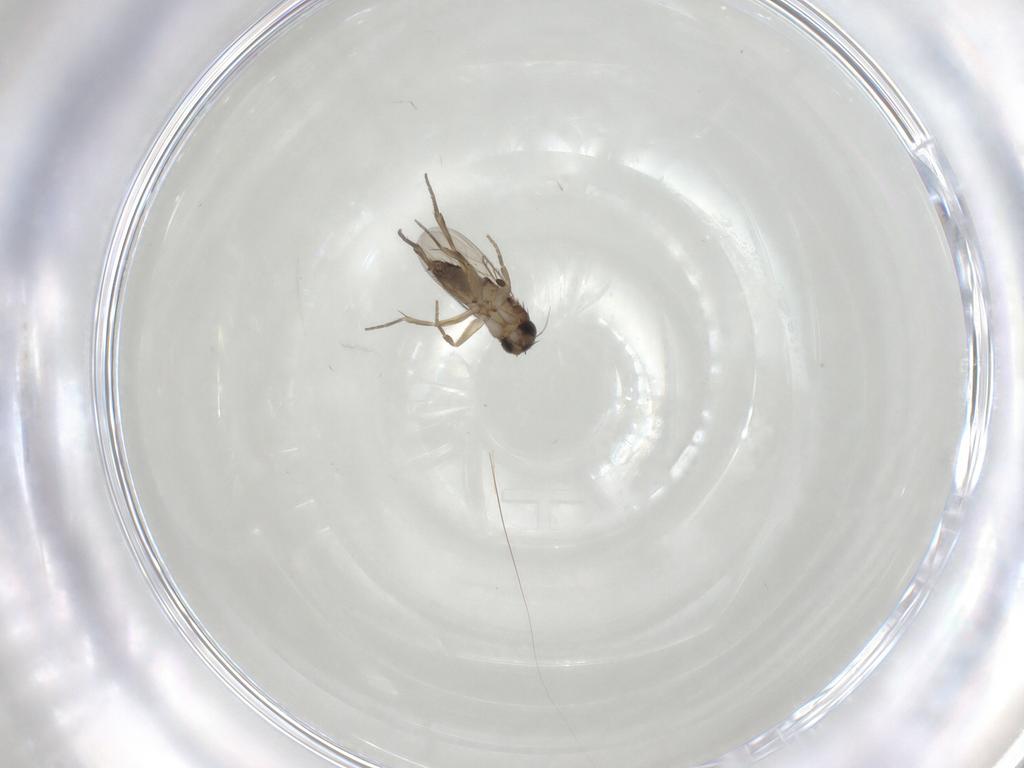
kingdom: Animalia
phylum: Arthropoda
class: Insecta
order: Diptera
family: Phoridae
